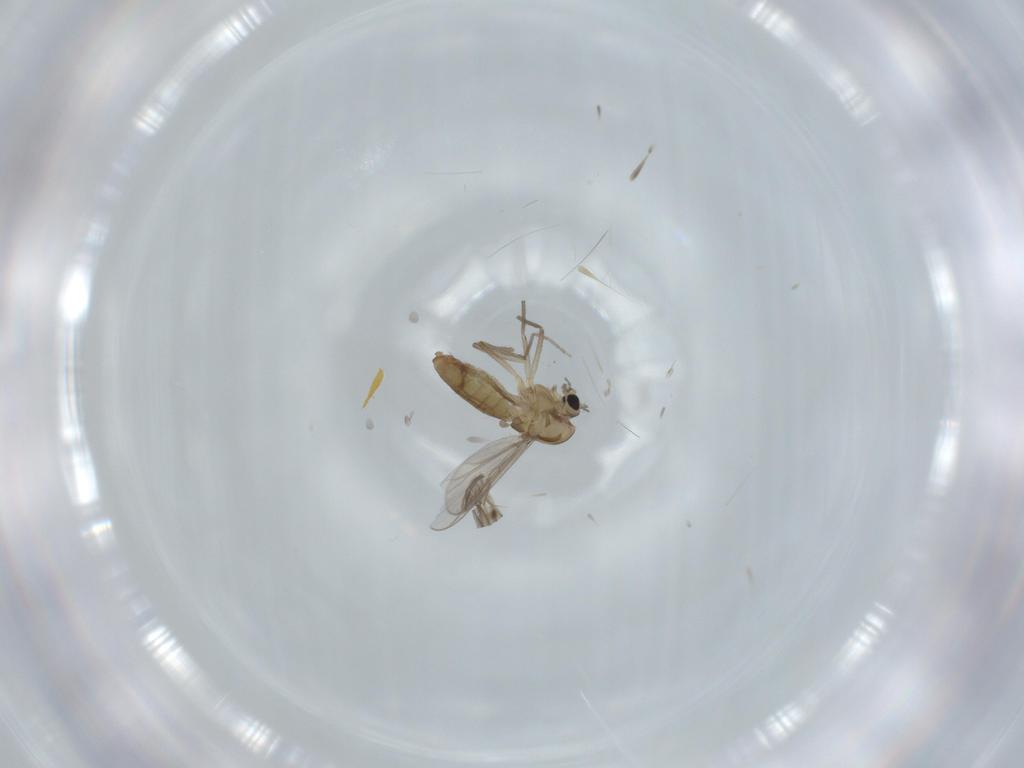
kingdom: Animalia
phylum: Arthropoda
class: Insecta
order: Diptera
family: Chironomidae
